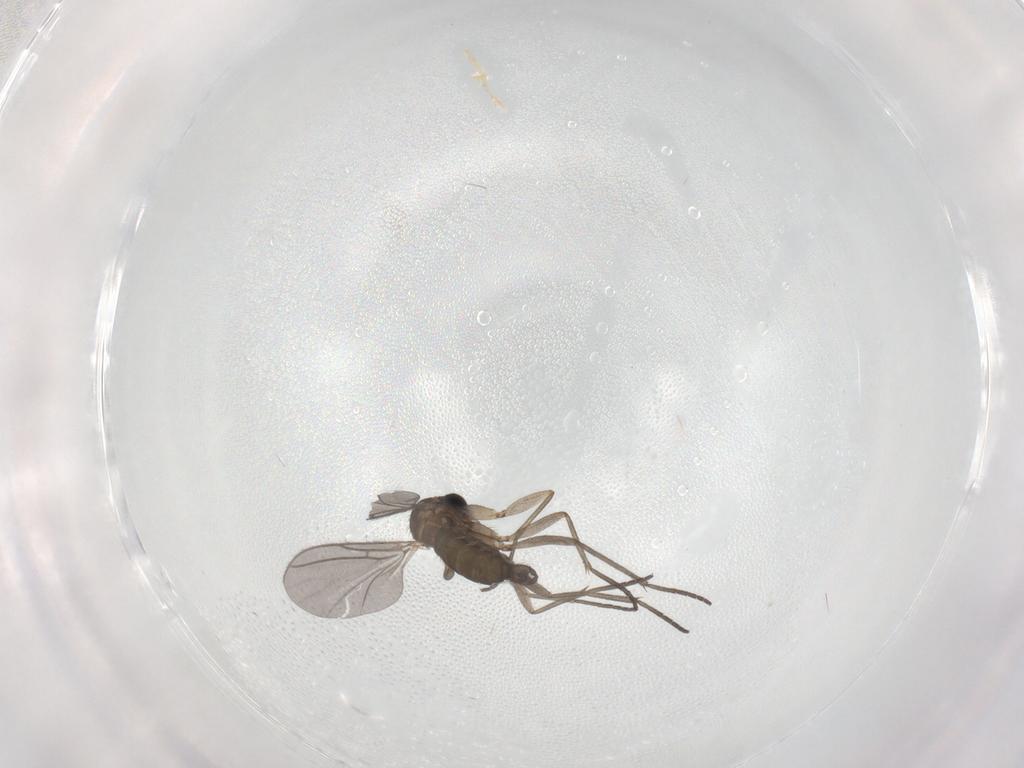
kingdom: Animalia
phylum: Arthropoda
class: Insecta
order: Diptera
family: Sciaridae
